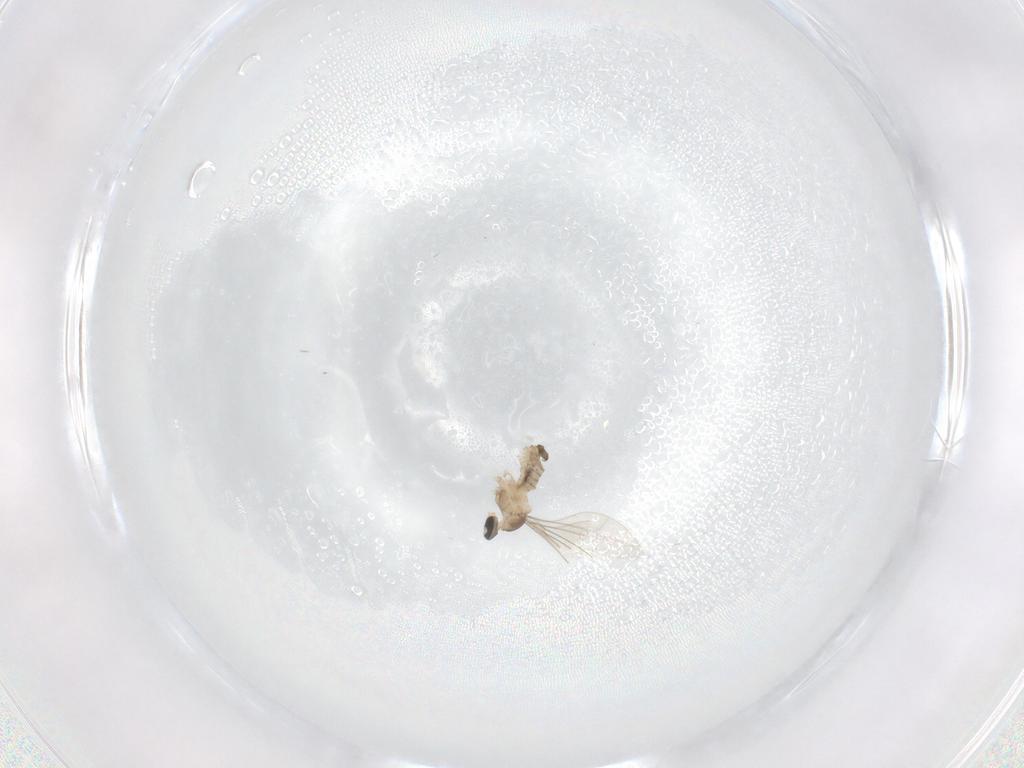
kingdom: Animalia
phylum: Arthropoda
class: Insecta
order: Diptera
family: Cecidomyiidae
